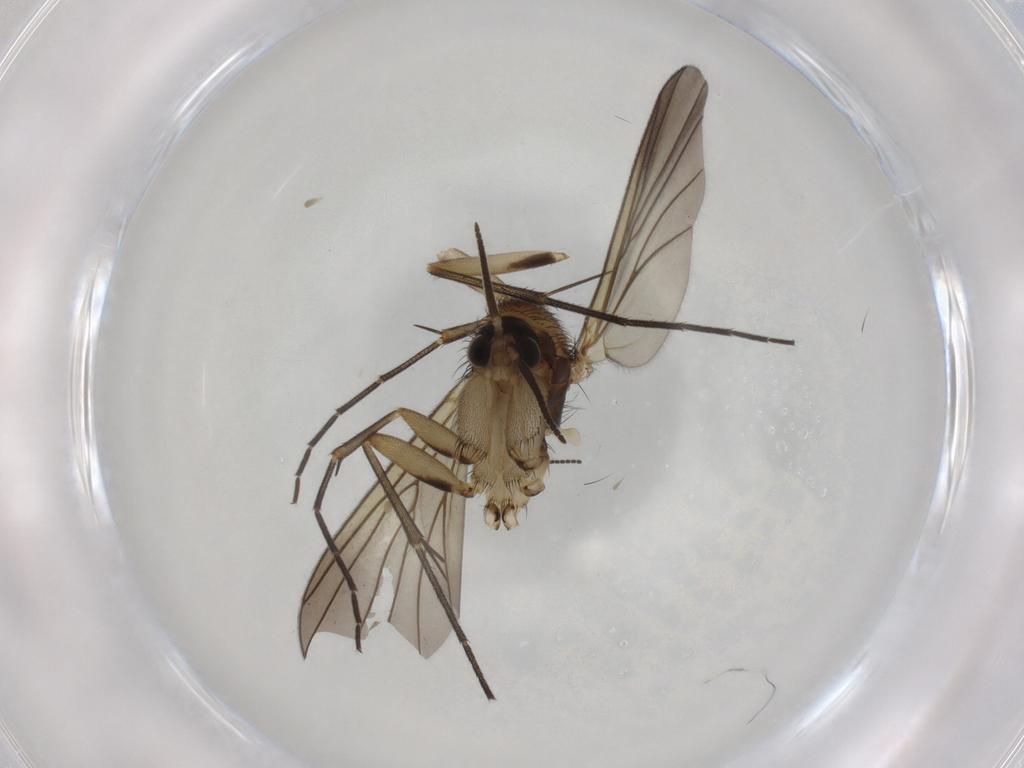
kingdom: Animalia
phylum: Arthropoda
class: Insecta
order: Diptera
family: Mycetophilidae
